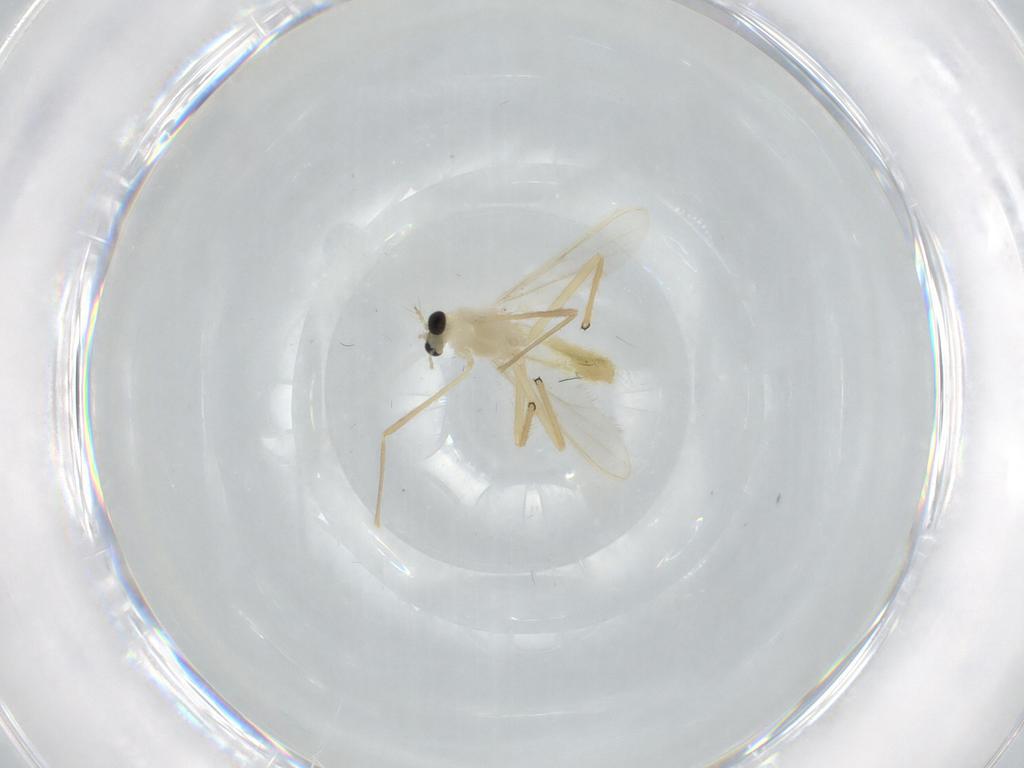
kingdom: Animalia
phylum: Arthropoda
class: Insecta
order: Diptera
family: Chironomidae
